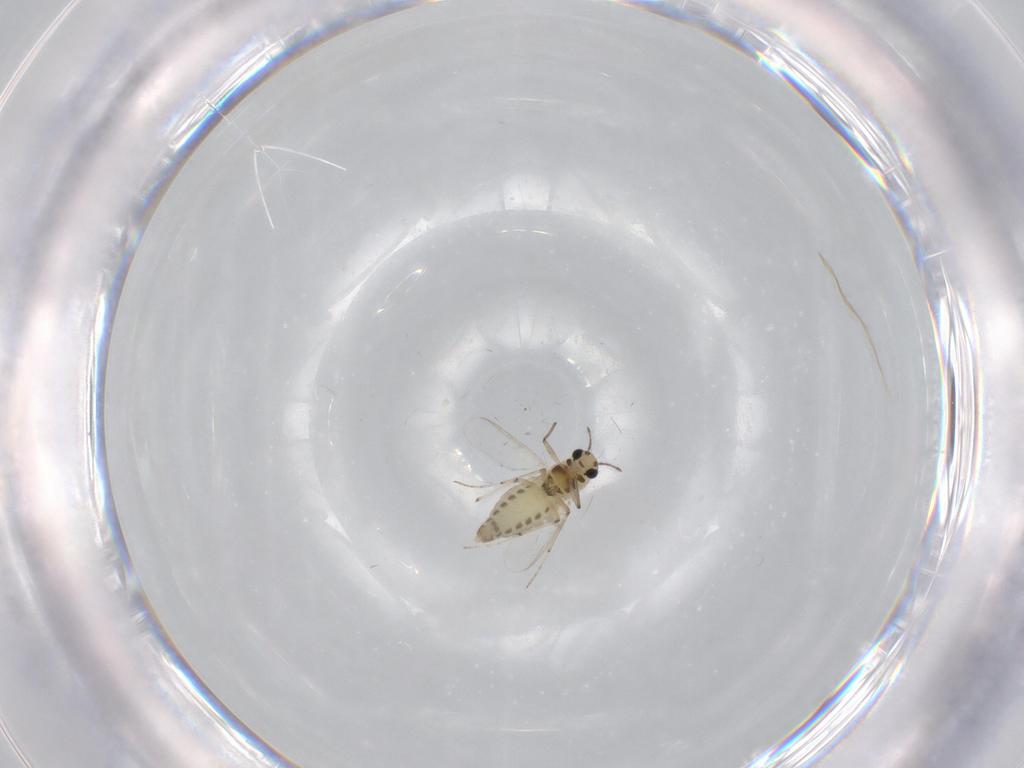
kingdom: Animalia
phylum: Arthropoda
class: Insecta
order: Diptera
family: Chironomidae
